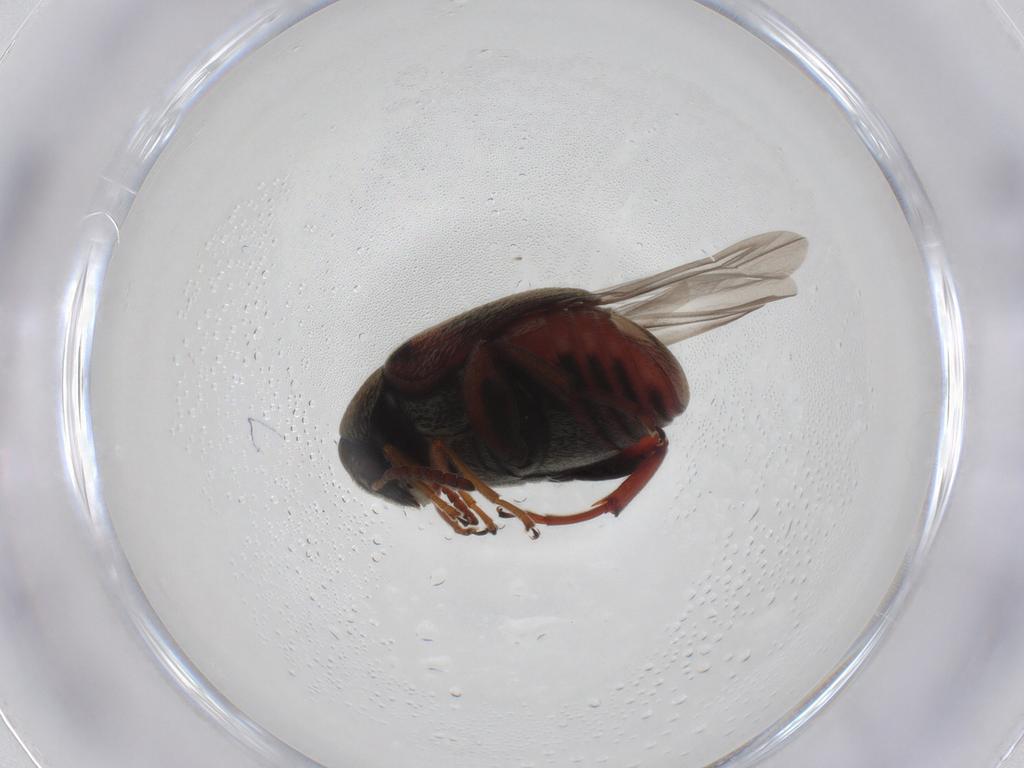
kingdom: Animalia
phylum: Arthropoda
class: Insecta
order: Coleoptera
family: Chrysomelidae
